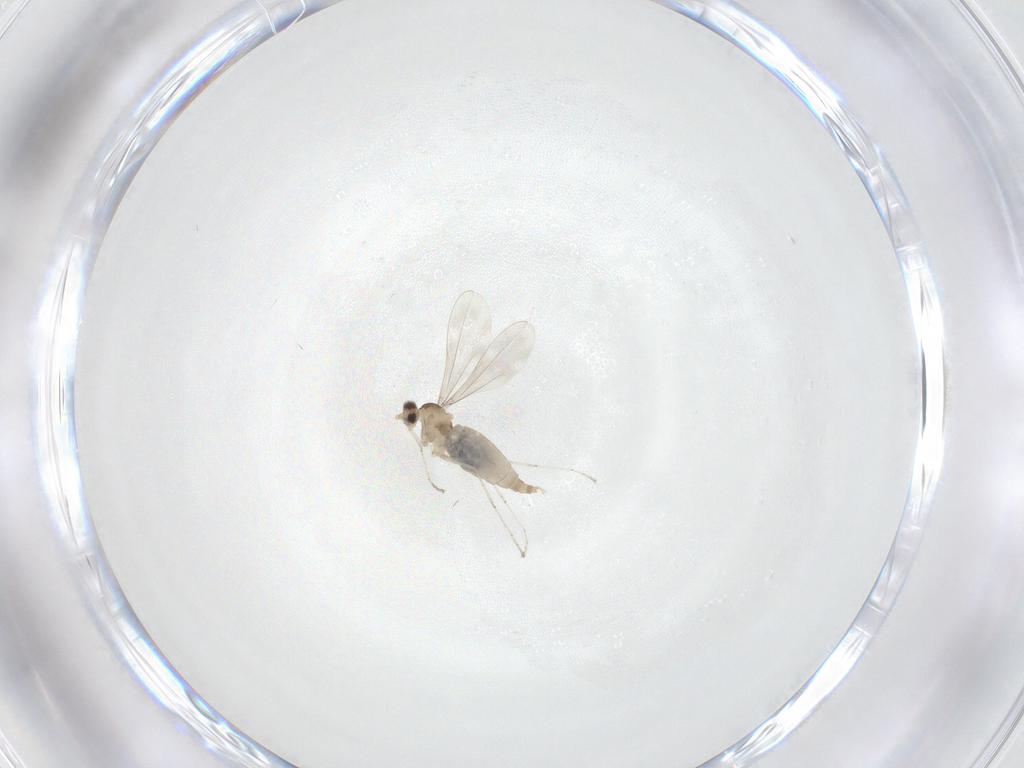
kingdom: Animalia
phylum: Arthropoda
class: Insecta
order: Diptera
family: Cecidomyiidae
